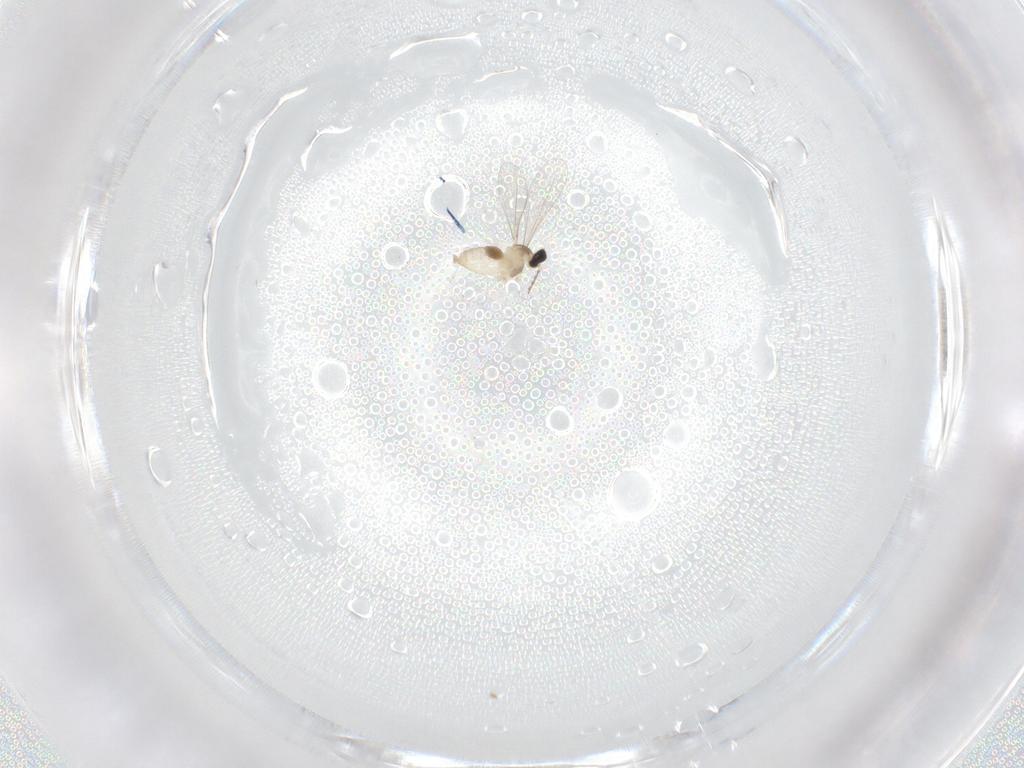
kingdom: Animalia
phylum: Arthropoda
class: Insecta
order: Diptera
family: Cecidomyiidae
